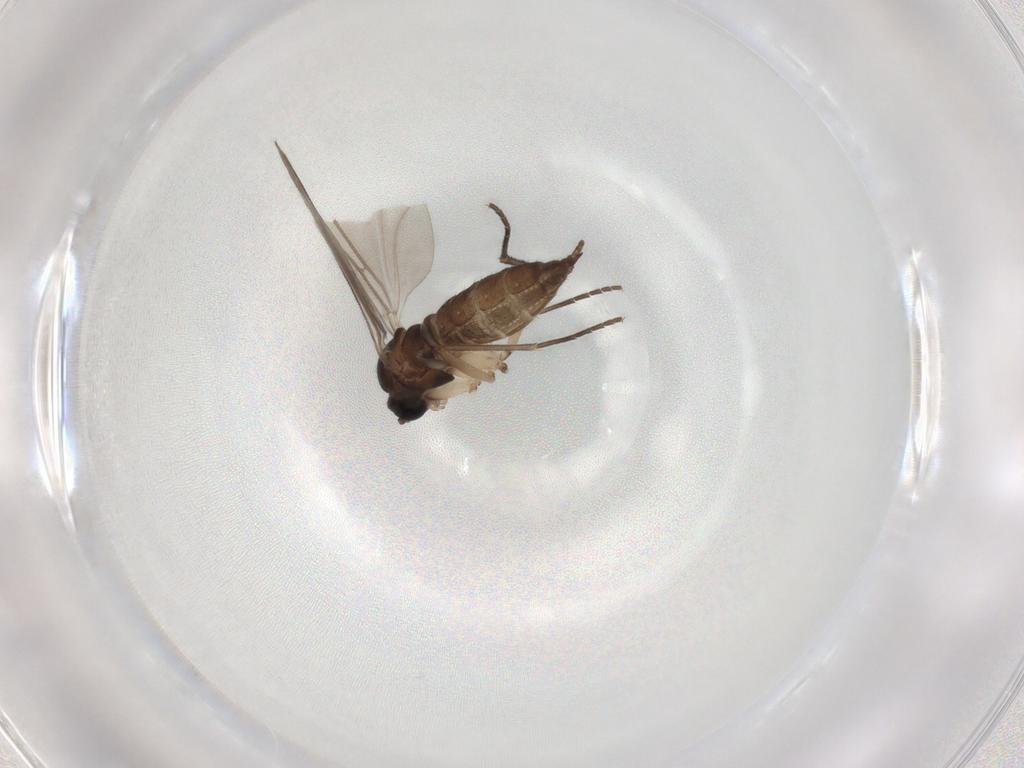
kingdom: Animalia
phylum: Arthropoda
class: Insecta
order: Diptera
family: Sciaridae
